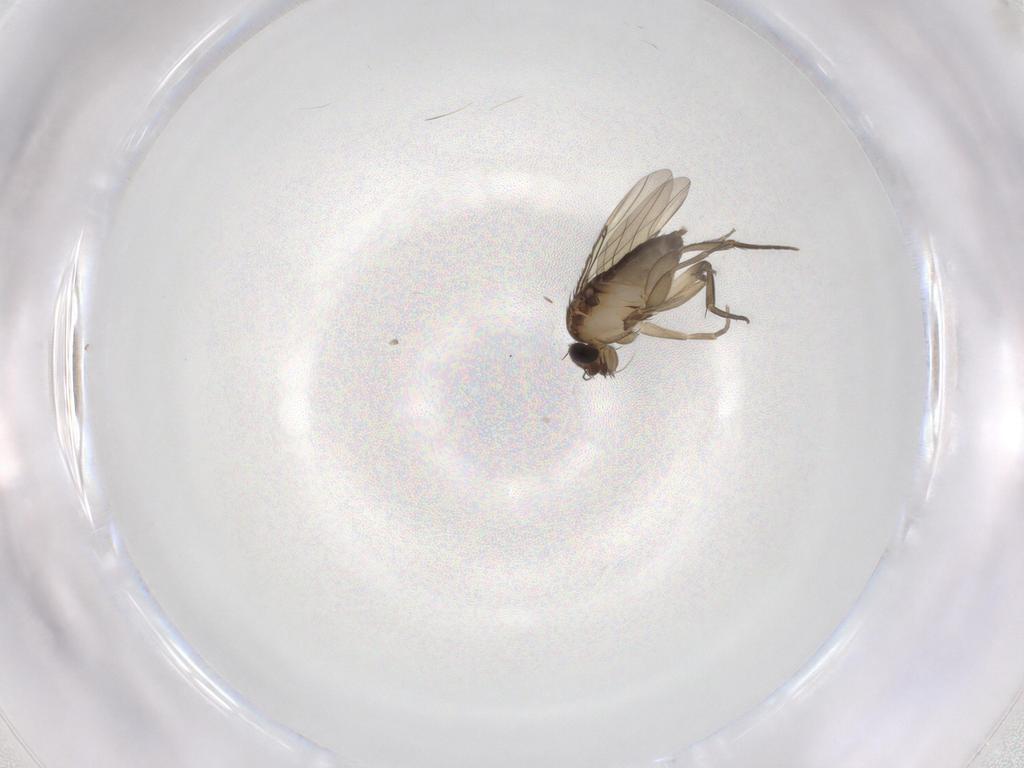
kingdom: Animalia
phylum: Arthropoda
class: Insecta
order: Diptera
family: Phoridae
